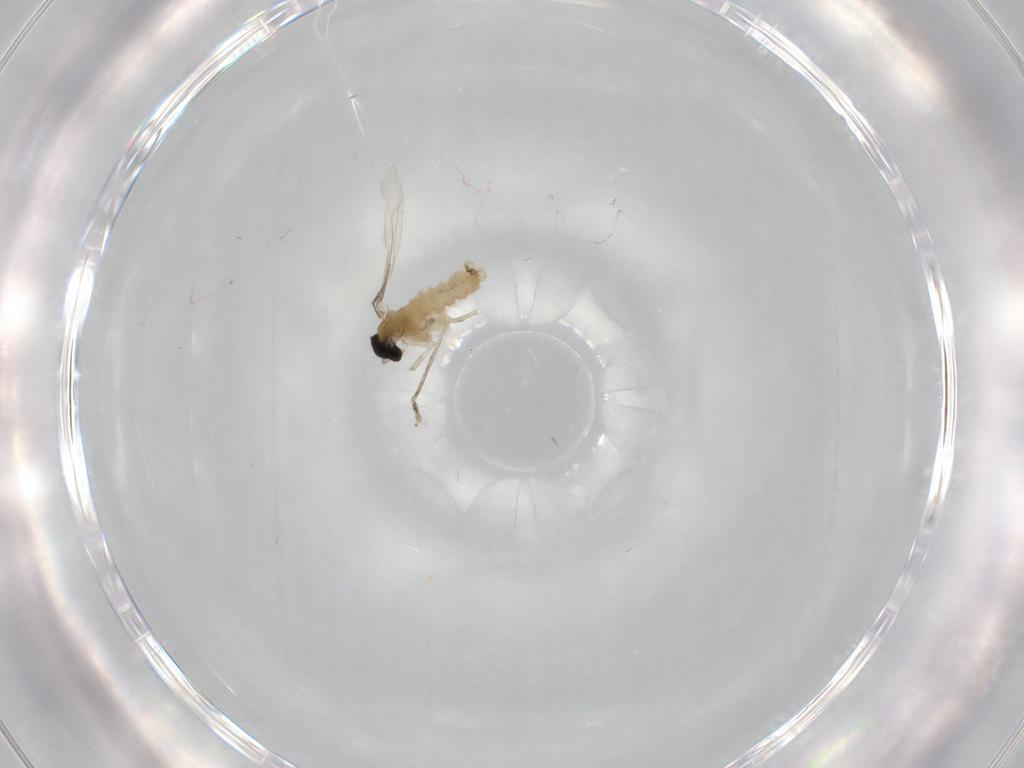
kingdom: Animalia
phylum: Arthropoda
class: Insecta
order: Diptera
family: Cecidomyiidae
